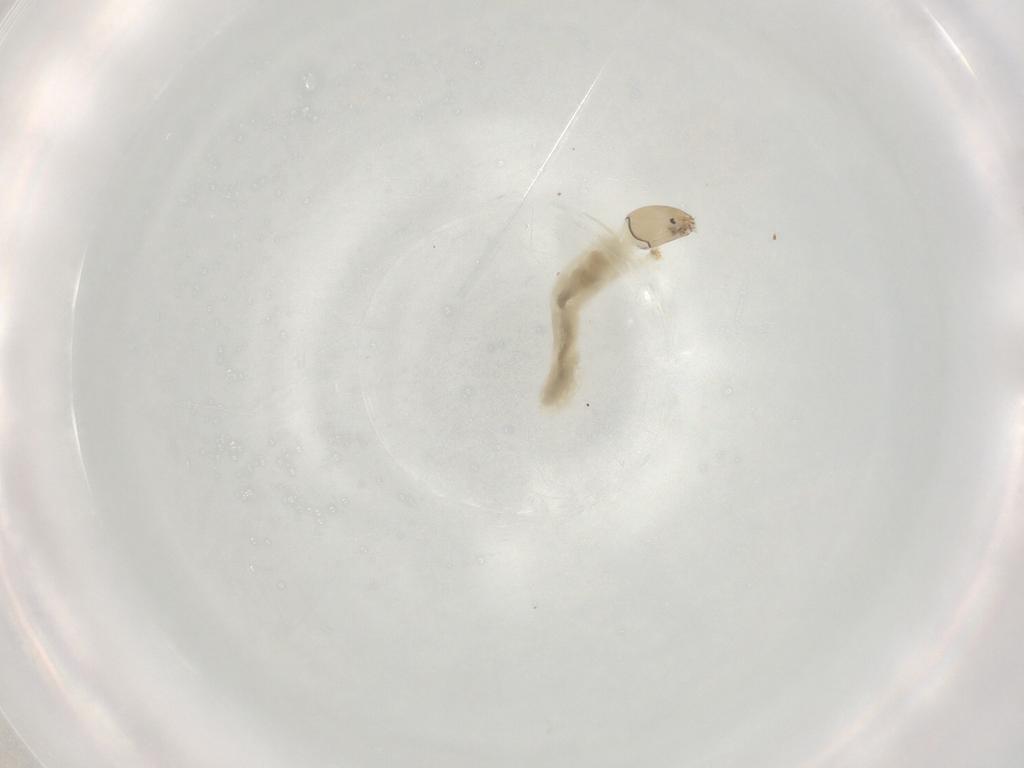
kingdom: Animalia
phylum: Arthropoda
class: Insecta
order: Diptera
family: Chironomidae
